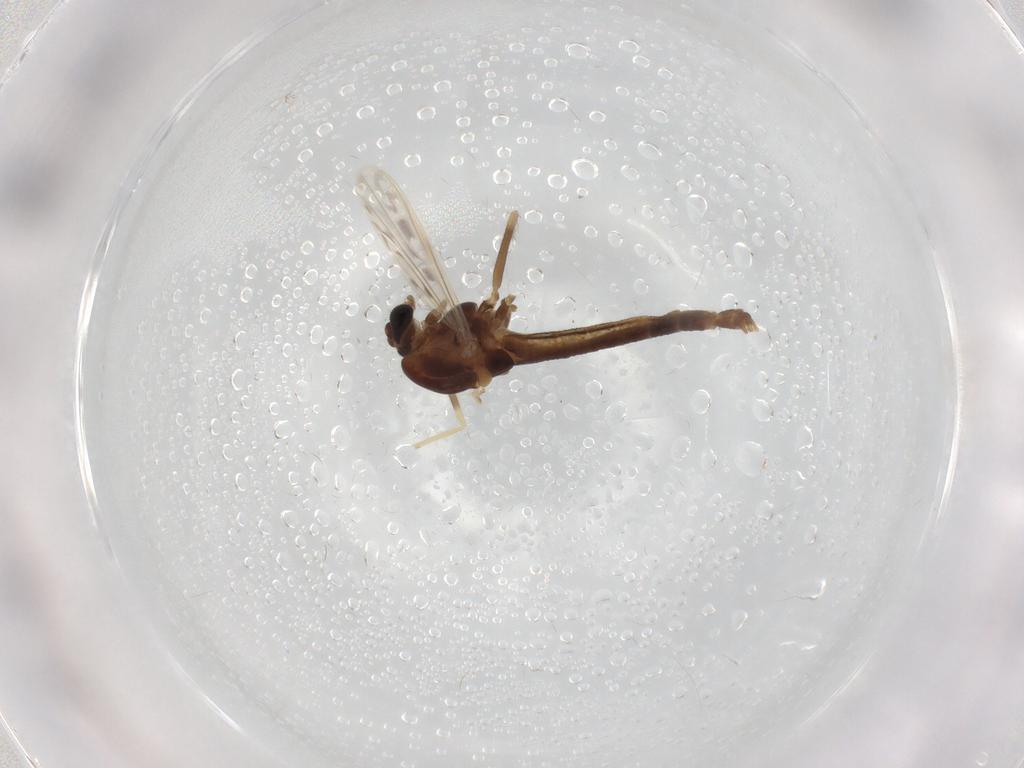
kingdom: Animalia
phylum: Arthropoda
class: Insecta
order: Diptera
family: Chironomidae
